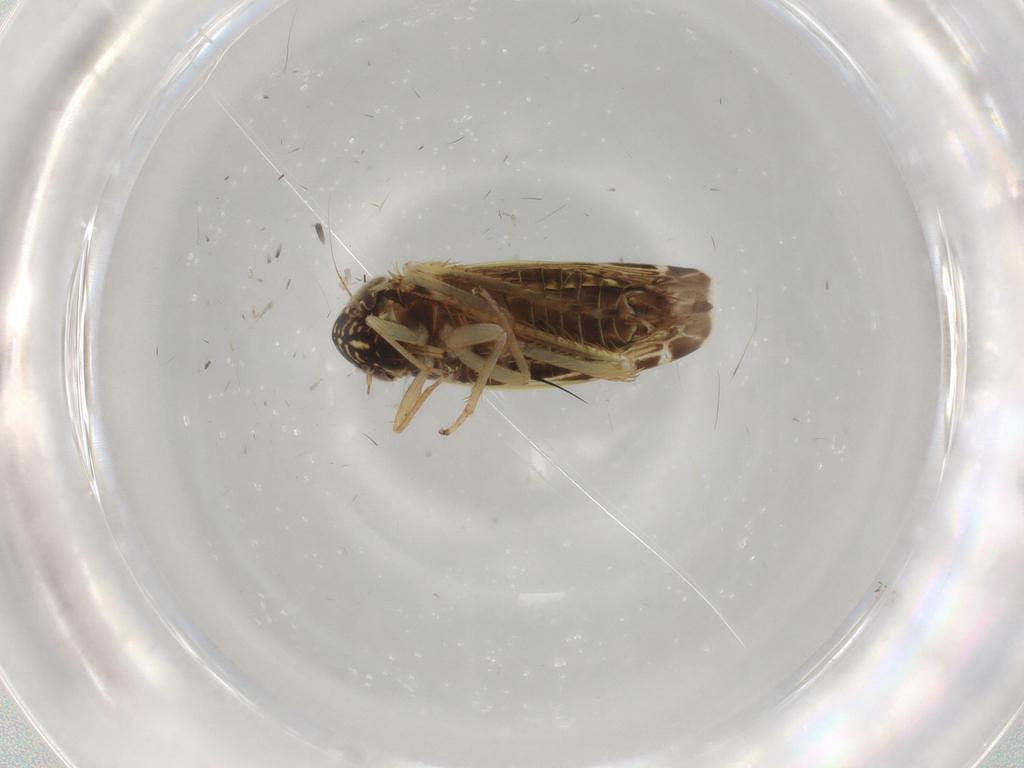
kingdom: Animalia
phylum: Arthropoda
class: Insecta
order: Hemiptera
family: Cicadellidae
